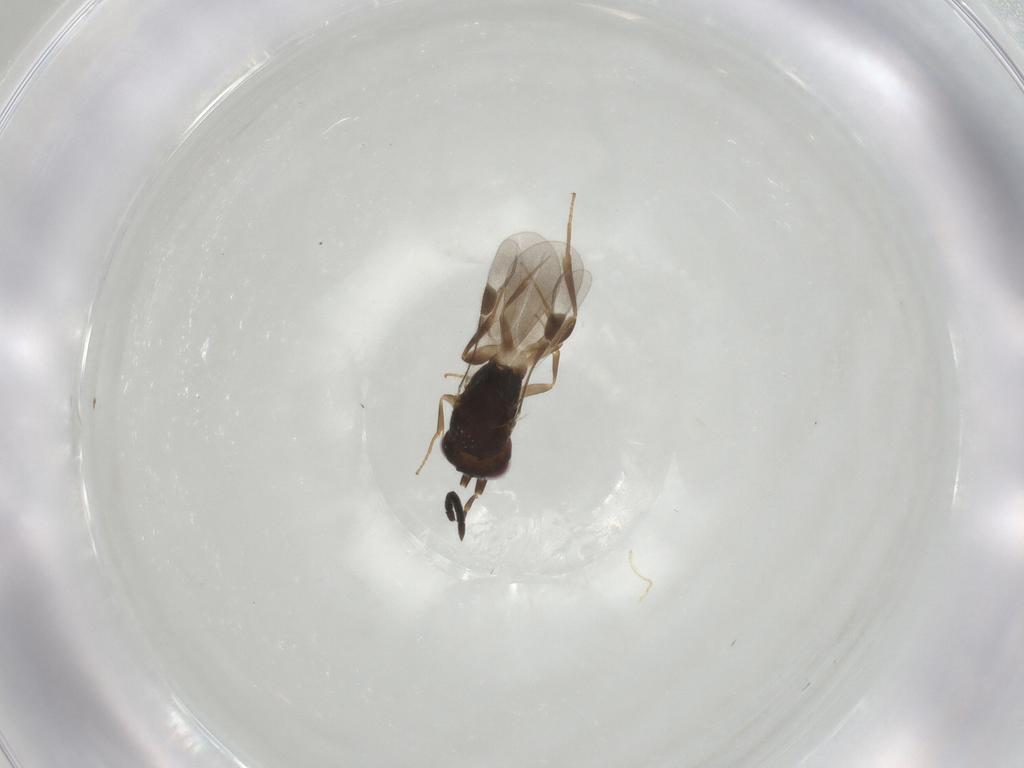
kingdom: Animalia
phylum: Arthropoda
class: Insecta
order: Hymenoptera
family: Megaspilidae
